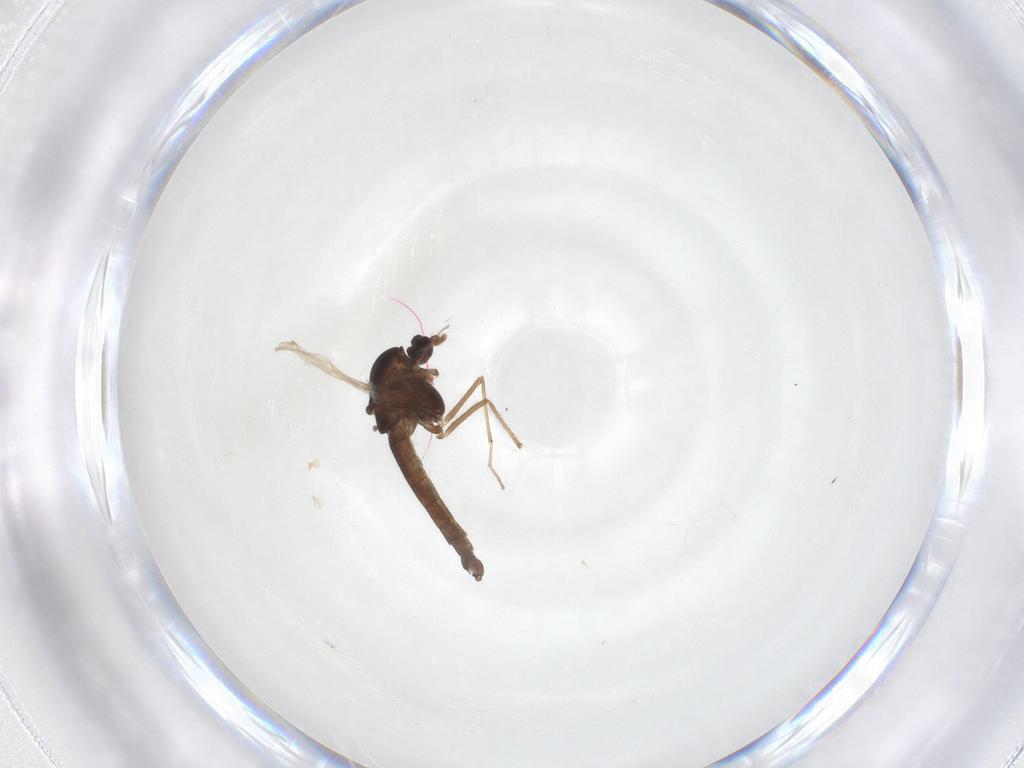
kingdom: Animalia
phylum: Arthropoda
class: Insecta
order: Diptera
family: Chironomidae
